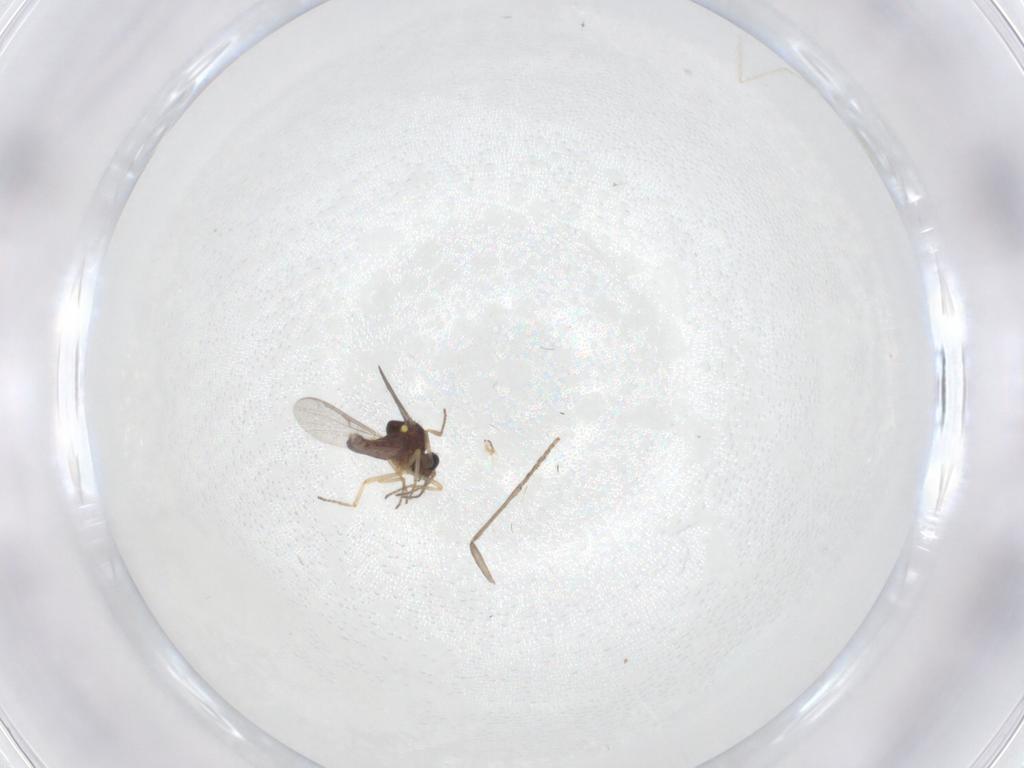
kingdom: Animalia
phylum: Arthropoda
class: Insecta
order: Diptera
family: Ceratopogonidae
